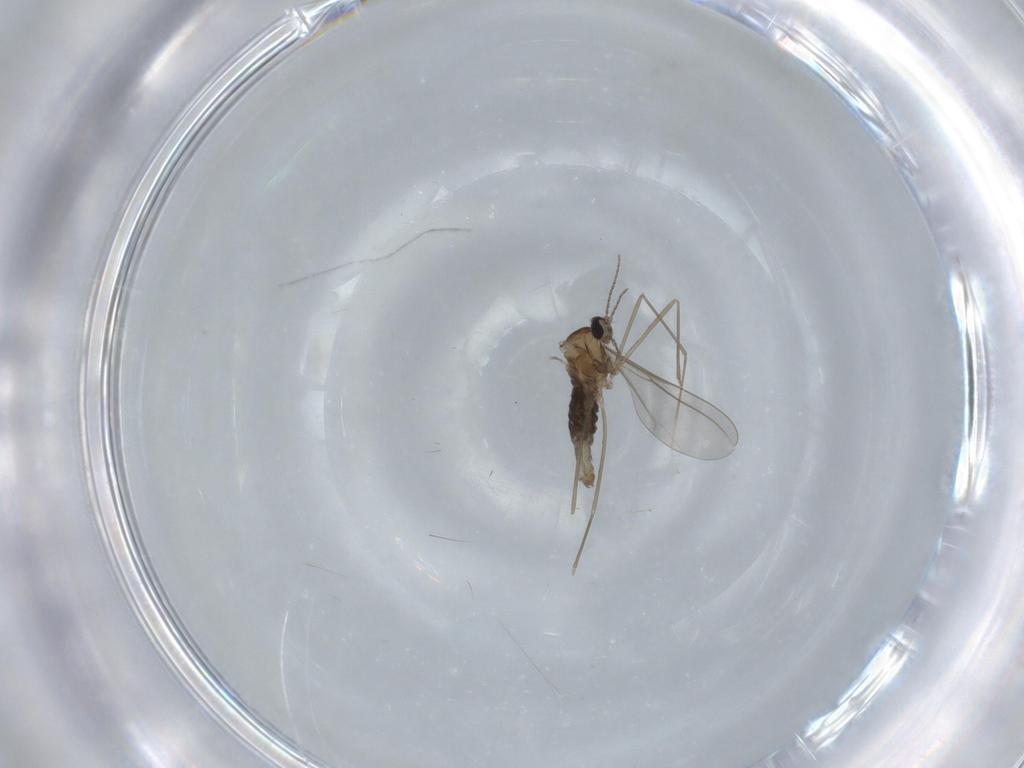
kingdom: Animalia
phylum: Arthropoda
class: Insecta
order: Diptera
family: Cecidomyiidae
